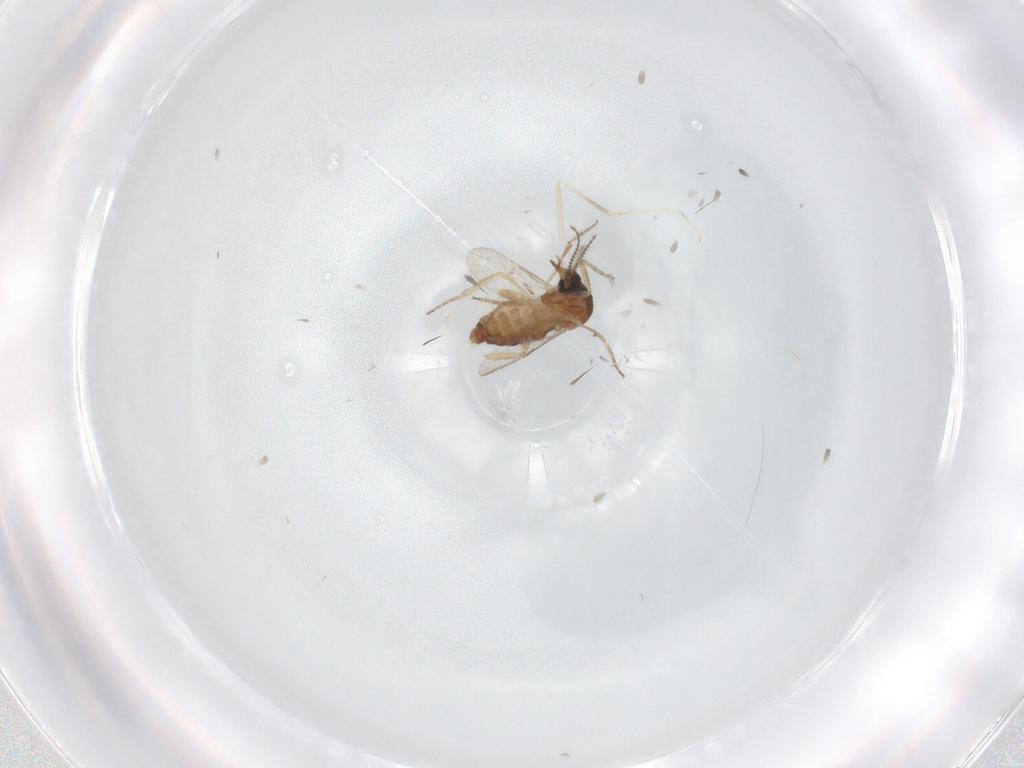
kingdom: Animalia
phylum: Arthropoda
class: Insecta
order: Diptera
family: Ceratopogonidae
